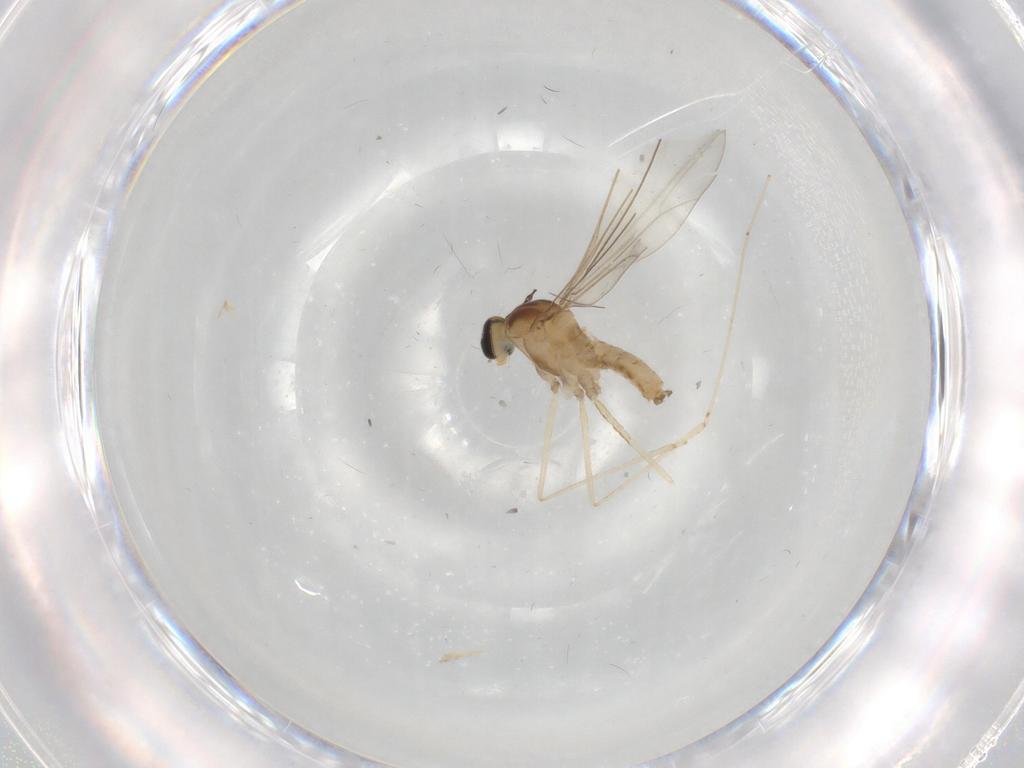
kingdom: Animalia
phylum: Arthropoda
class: Insecta
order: Diptera
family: Cecidomyiidae
